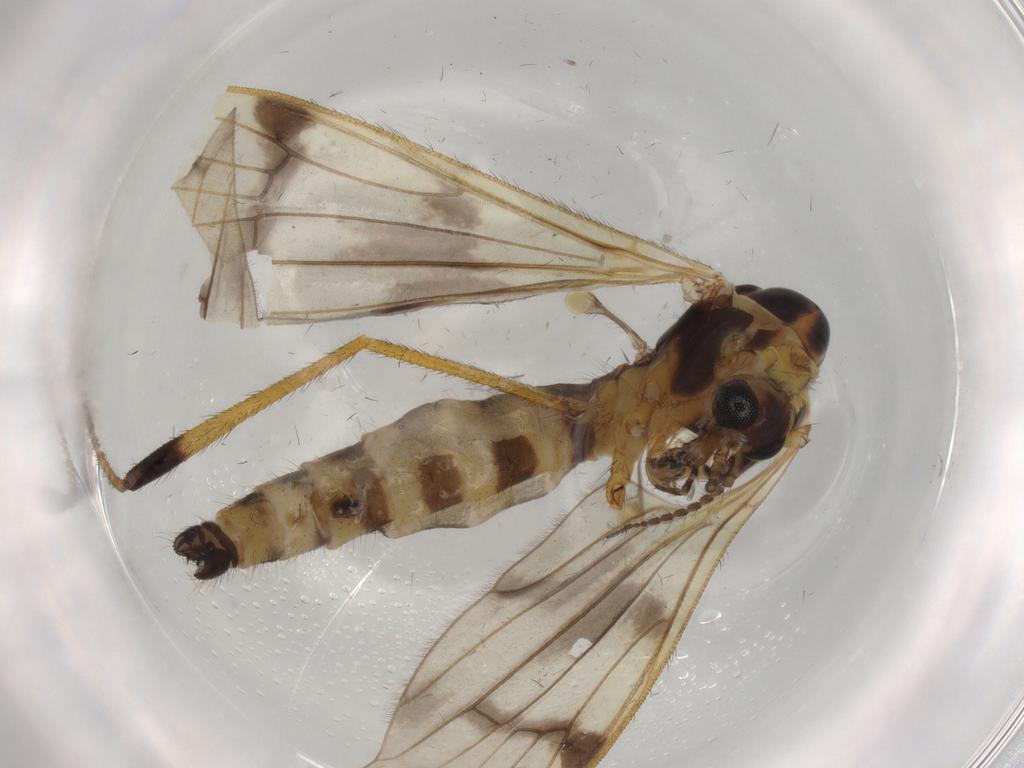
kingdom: Animalia
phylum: Arthropoda
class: Insecta
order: Diptera
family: Limoniidae
